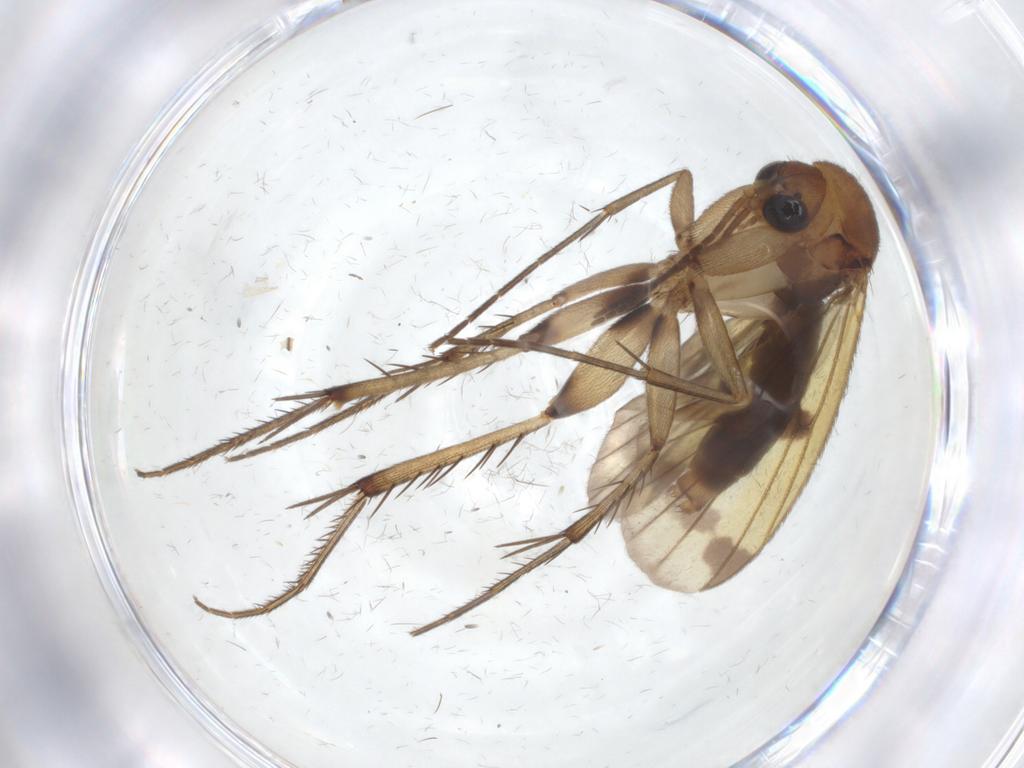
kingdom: Animalia
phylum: Arthropoda
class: Insecta
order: Diptera
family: Mycetophilidae
